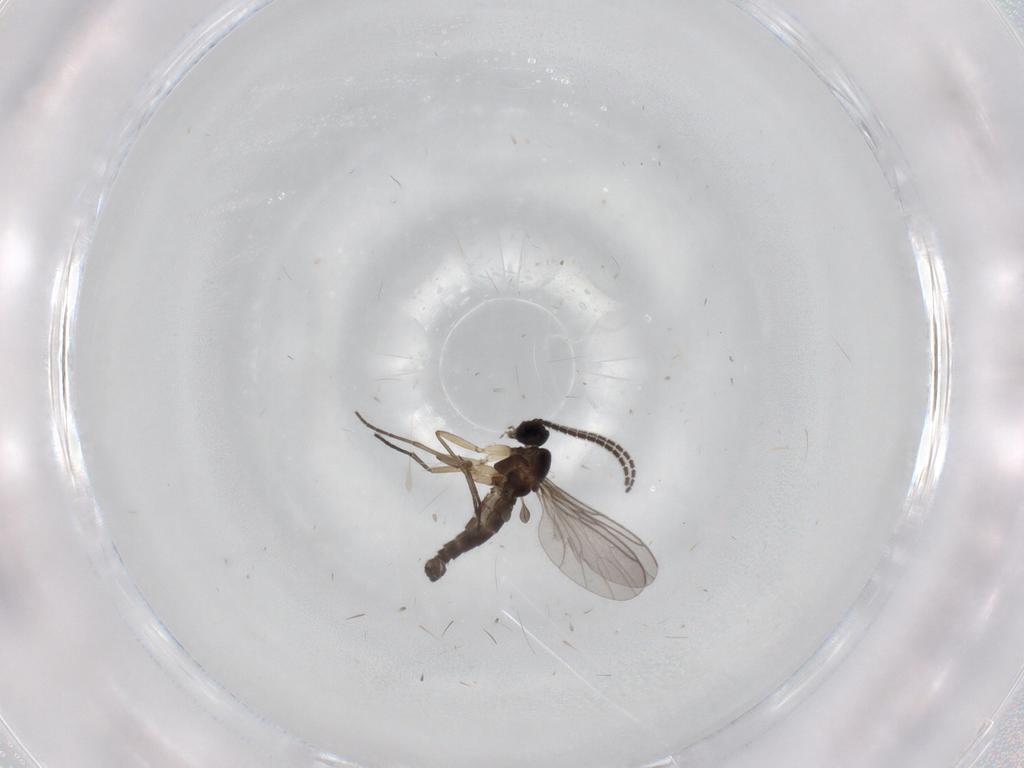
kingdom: Animalia
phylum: Arthropoda
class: Insecta
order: Diptera
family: Sciaridae
